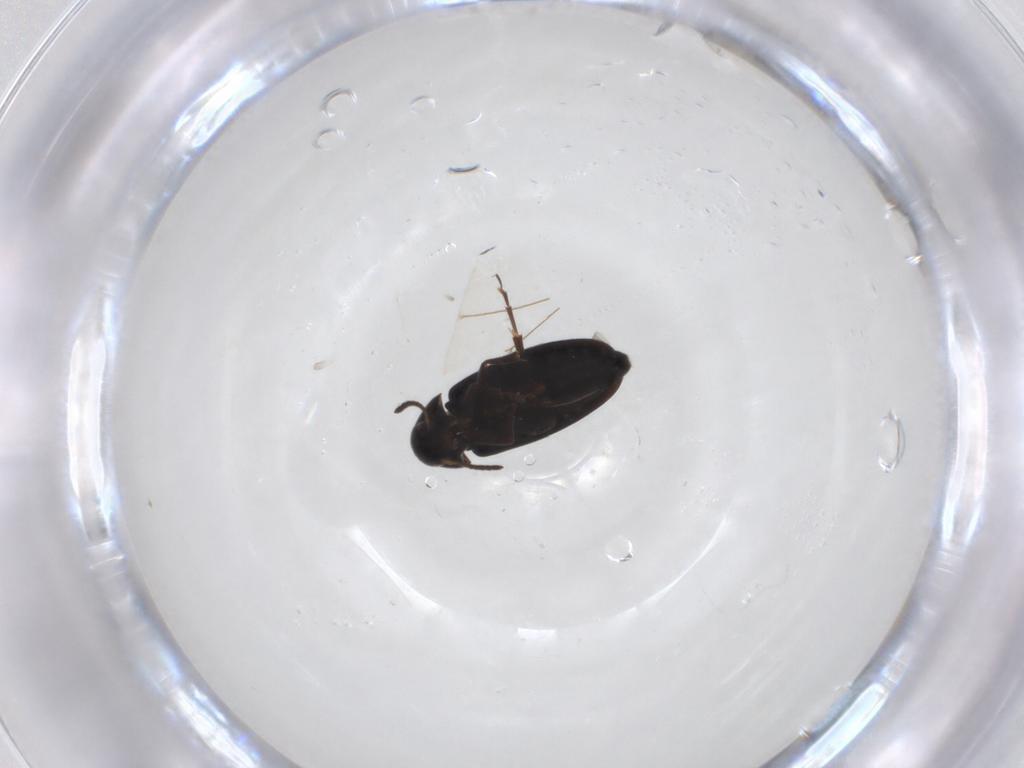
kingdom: Animalia
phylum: Arthropoda
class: Insecta
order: Coleoptera
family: Scraptiidae
